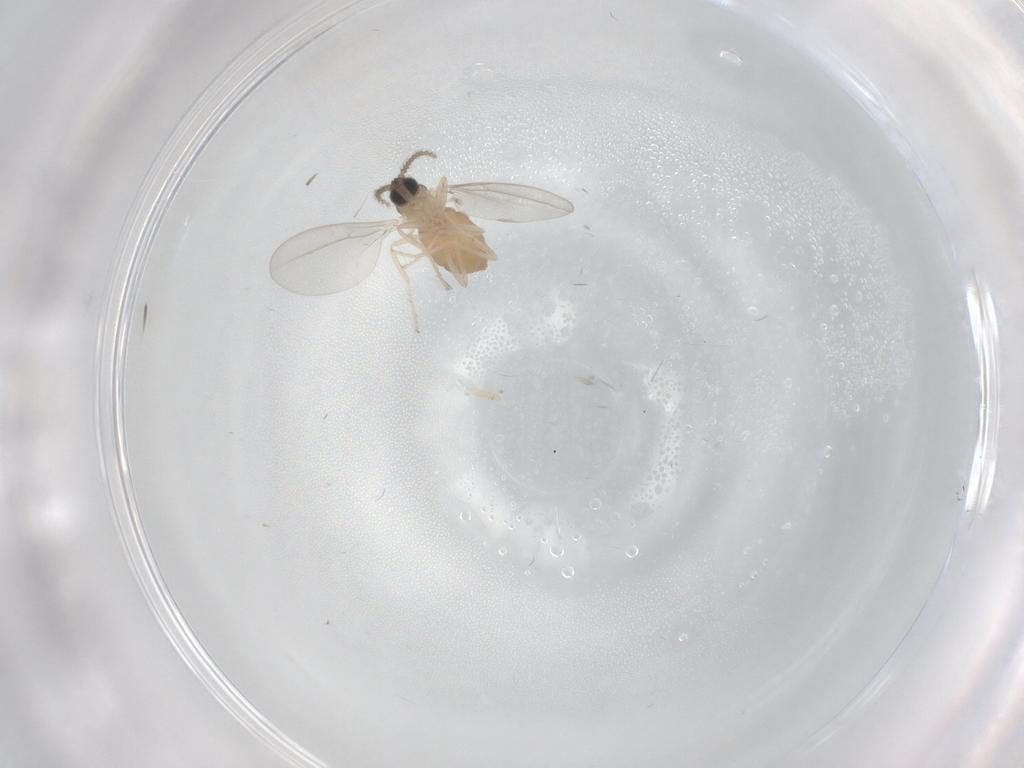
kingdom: Animalia
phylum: Arthropoda
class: Insecta
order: Diptera
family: Cecidomyiidae
